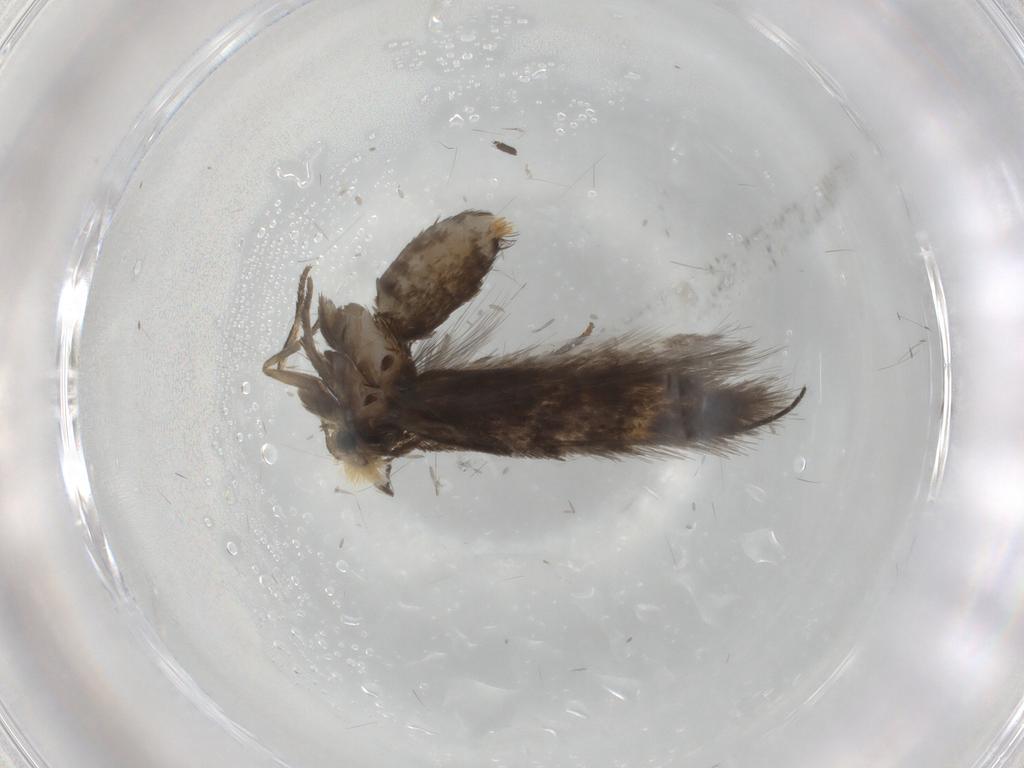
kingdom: Animalia
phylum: Arthropoda
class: Insecta
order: Lepidoptera
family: Nepticulidae
